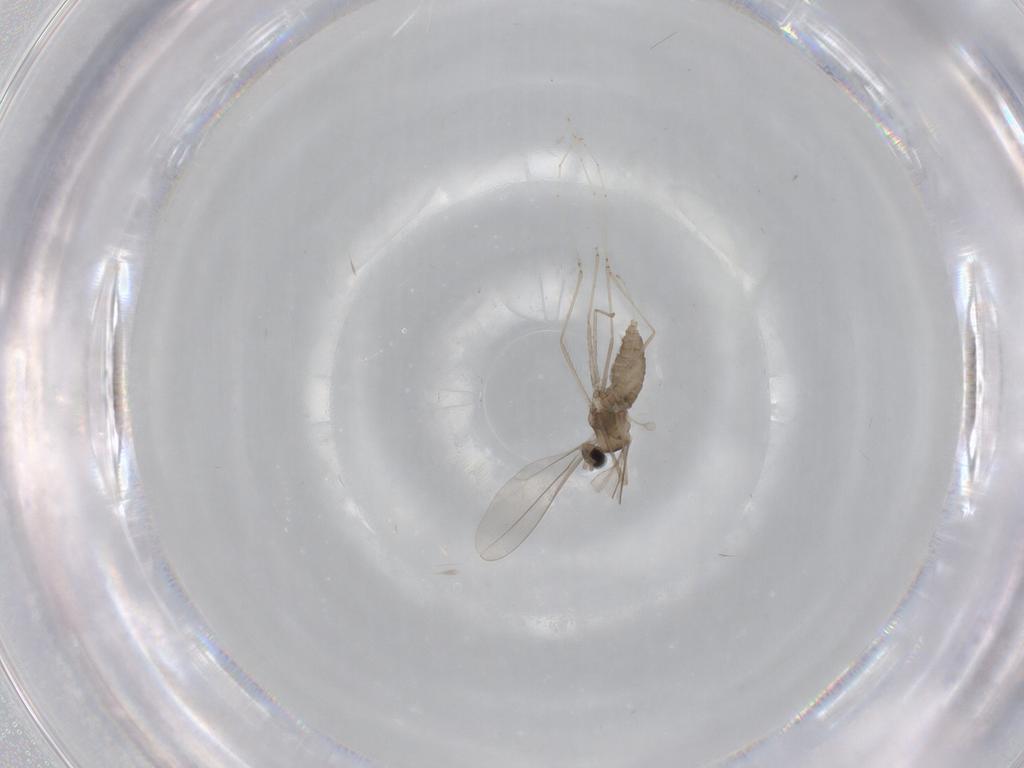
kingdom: Animalia
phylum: Arthropoda
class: Insecta
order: Diptera
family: Cecidomyiidae
